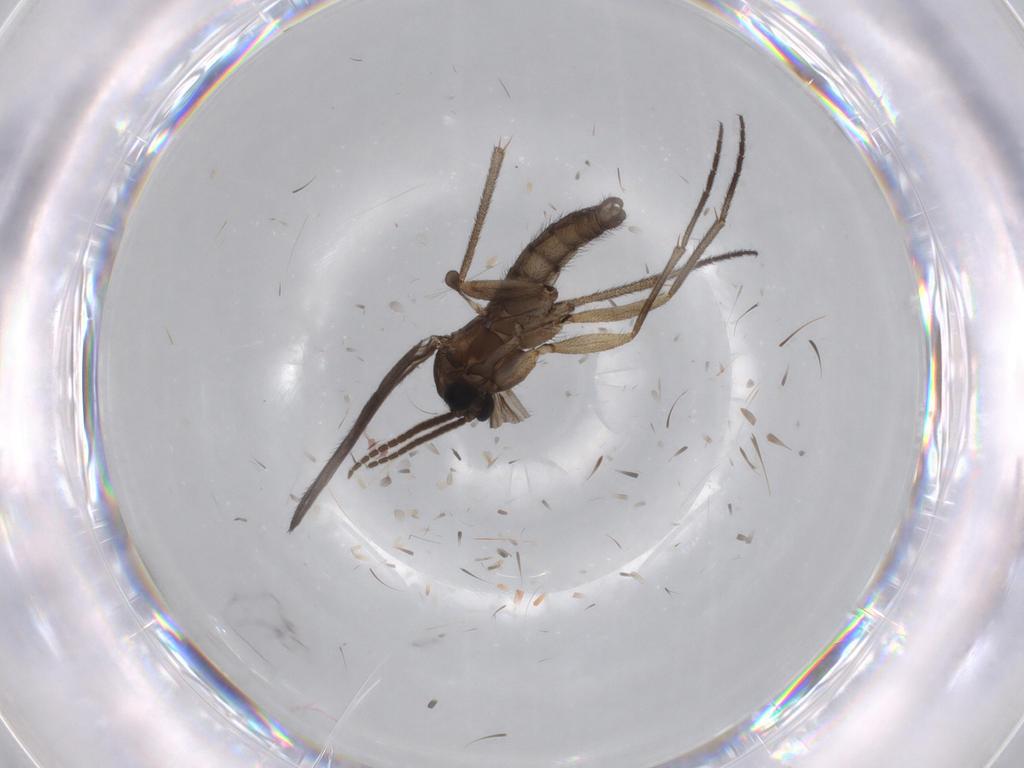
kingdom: Animalia
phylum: Arthropoda
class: Insecta
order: Diptera
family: Sciaridae
